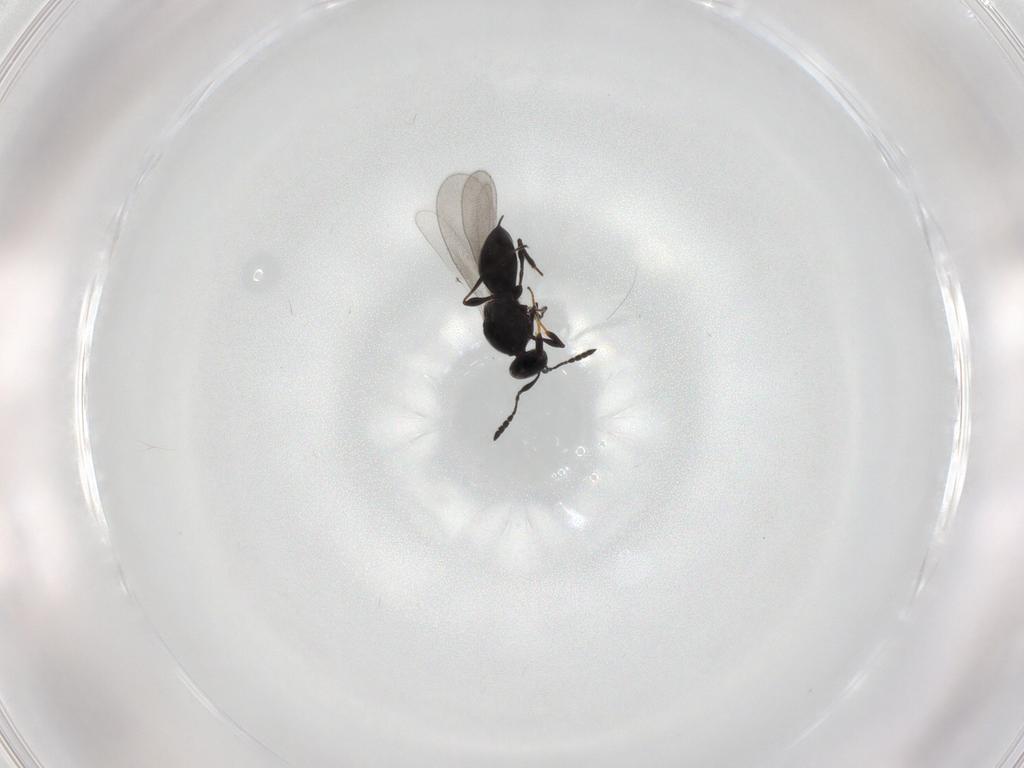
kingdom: Animalia
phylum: Arthropoda
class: Insecta
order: Hymenoptera
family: Platygastridae
